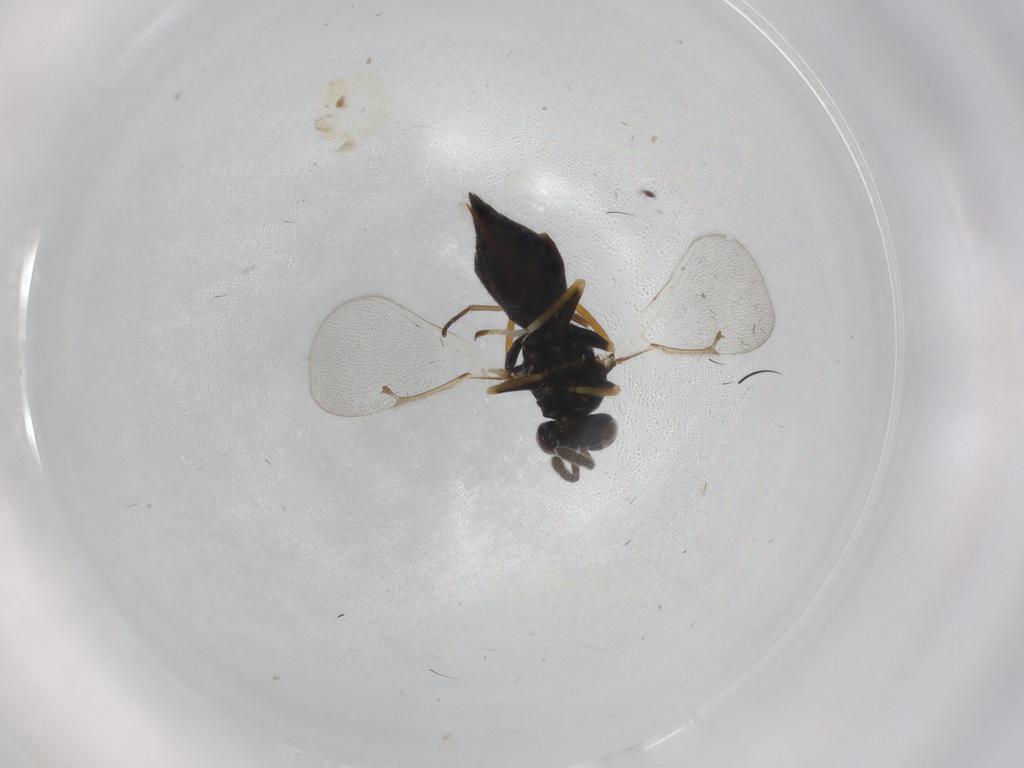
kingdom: Animalia
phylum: Arthropoda
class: Insecta
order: Hymenoptera
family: Eulophidae
